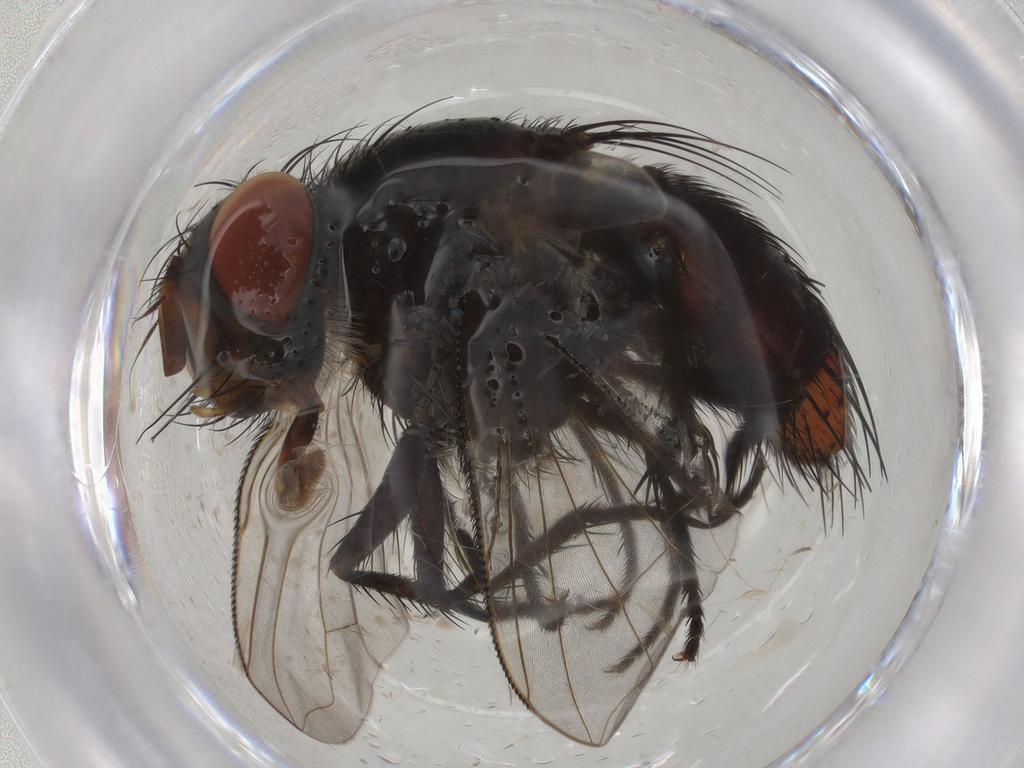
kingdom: Animalia
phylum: Arthropoda
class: Insecta
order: Diptera
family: Tachinidae
